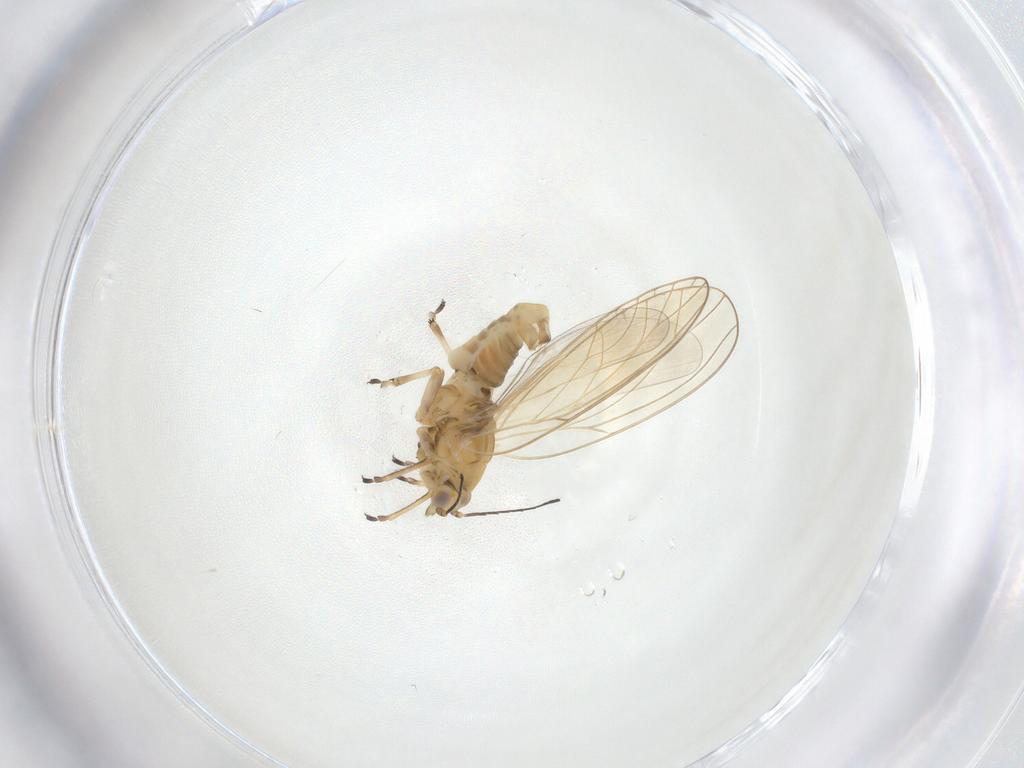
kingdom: Animalia
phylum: Arthropoda
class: Insecta
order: Hemiptera
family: Triozidae
